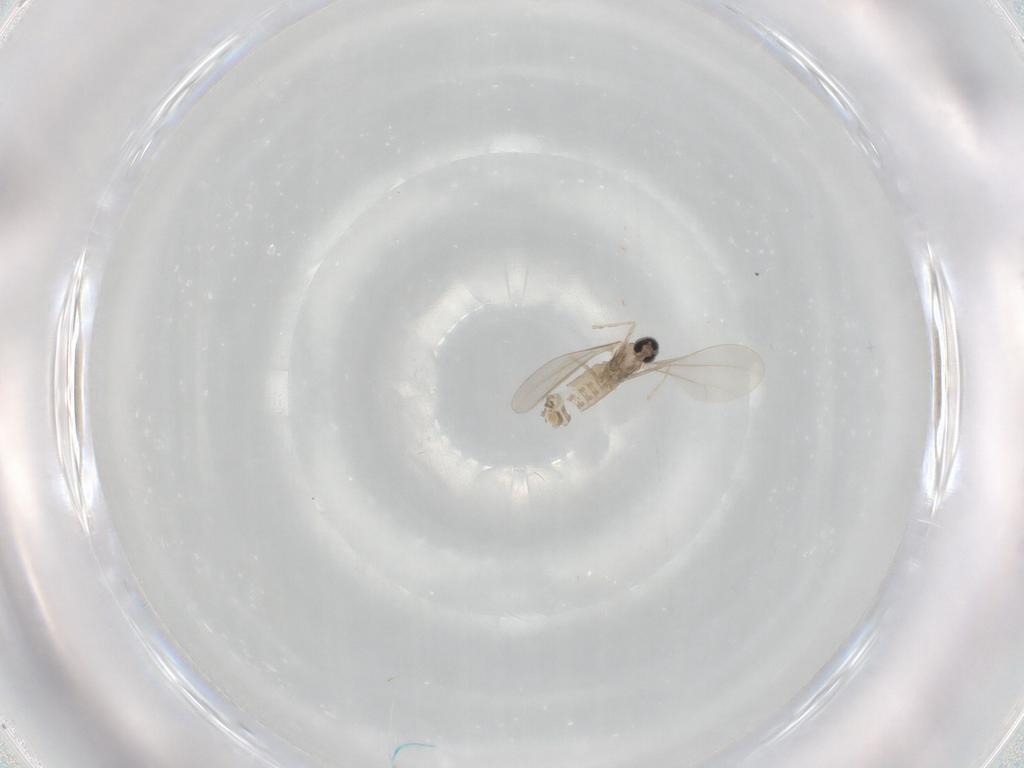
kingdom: Animalia
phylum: Arthropoda
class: Insecta
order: Diptera
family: Cecidomyiidae
